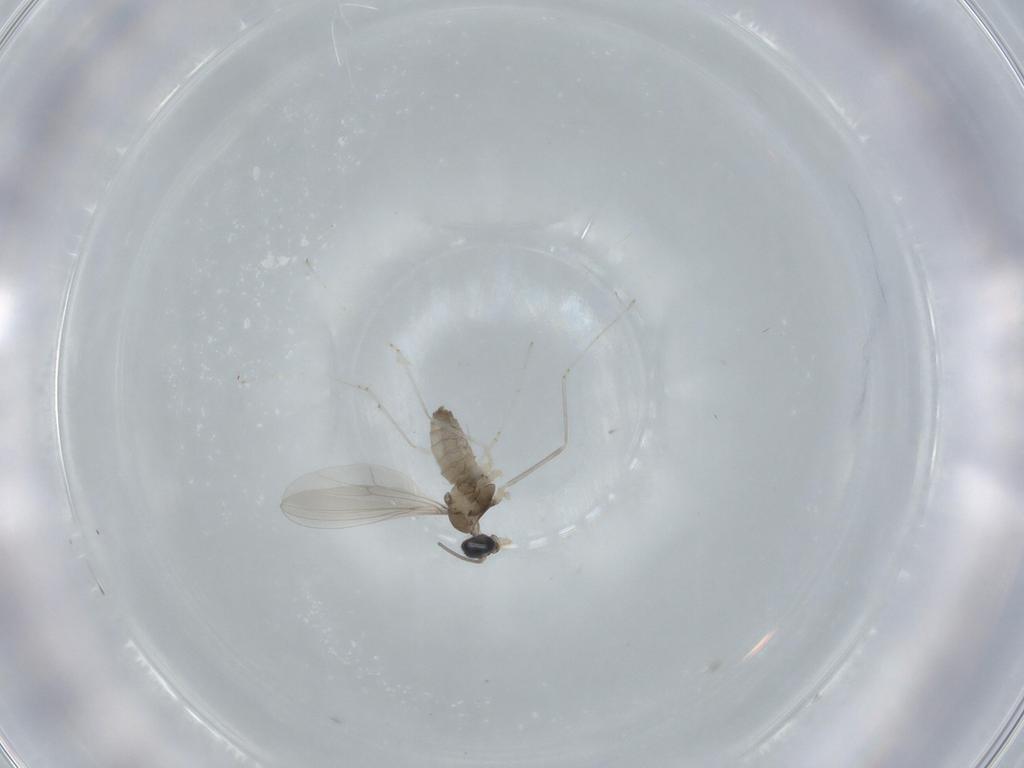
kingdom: Animalia
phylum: Arthropoda
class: Insecta
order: Diptera
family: Cecidomyiidae
